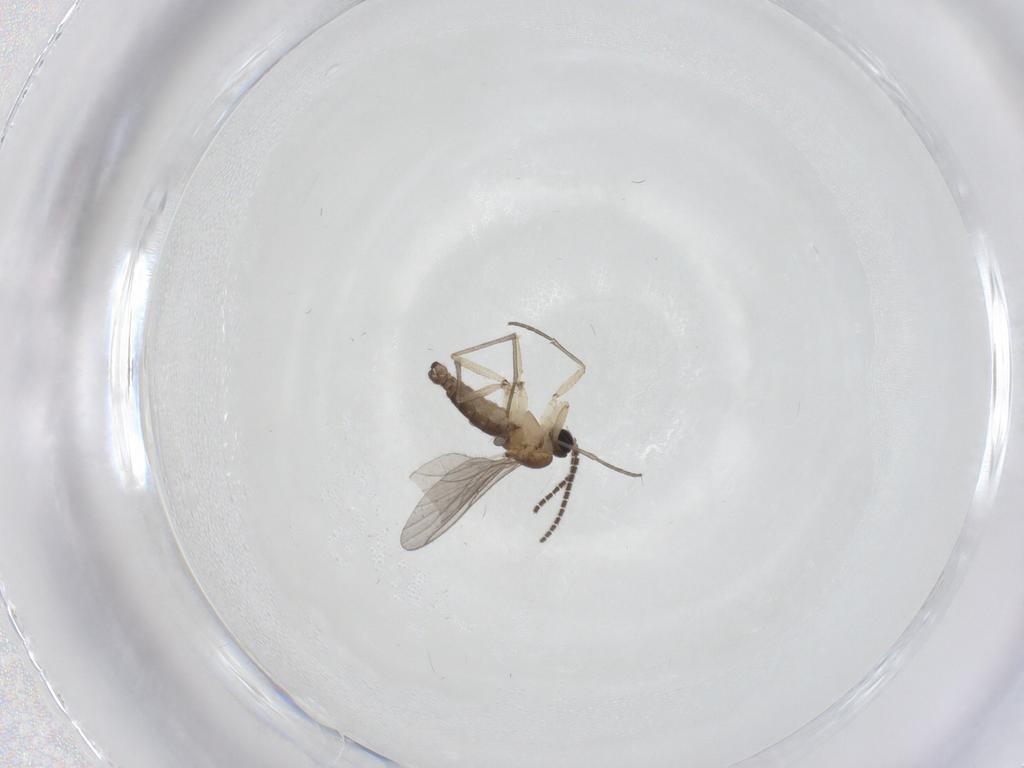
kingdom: Animalia
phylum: Arthropoda
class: Insecta
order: Diptera
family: Sciaridae
